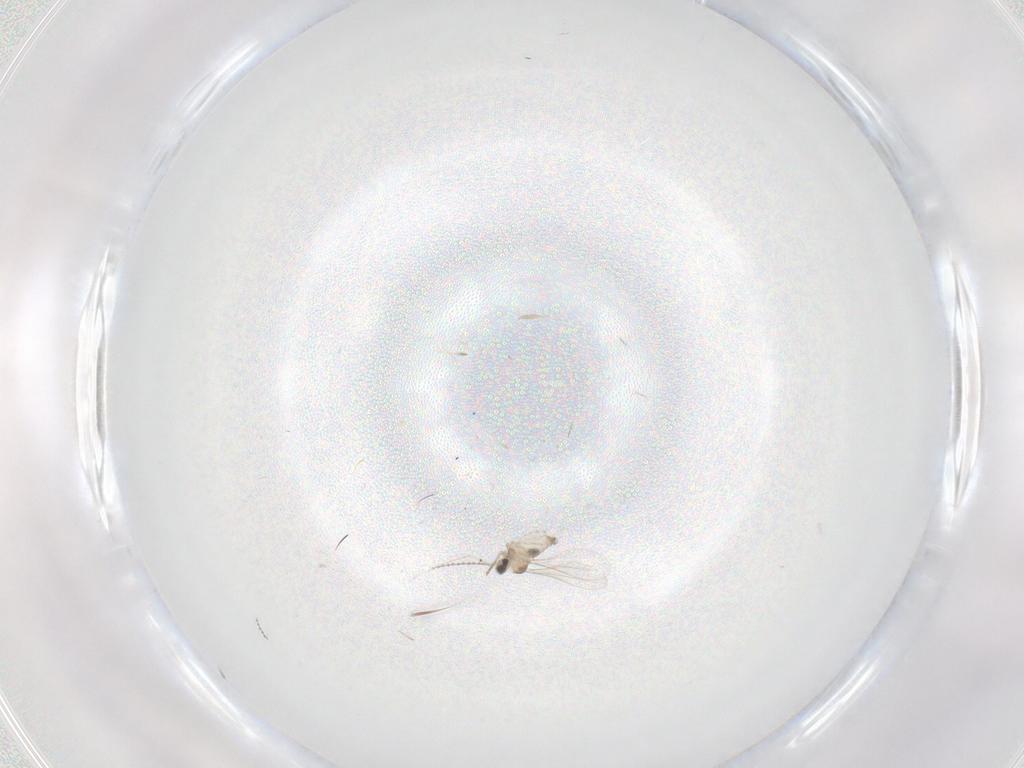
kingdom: Animalia
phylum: Arthropoda
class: Insecta
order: Diptera
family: Cecidomyiidae
